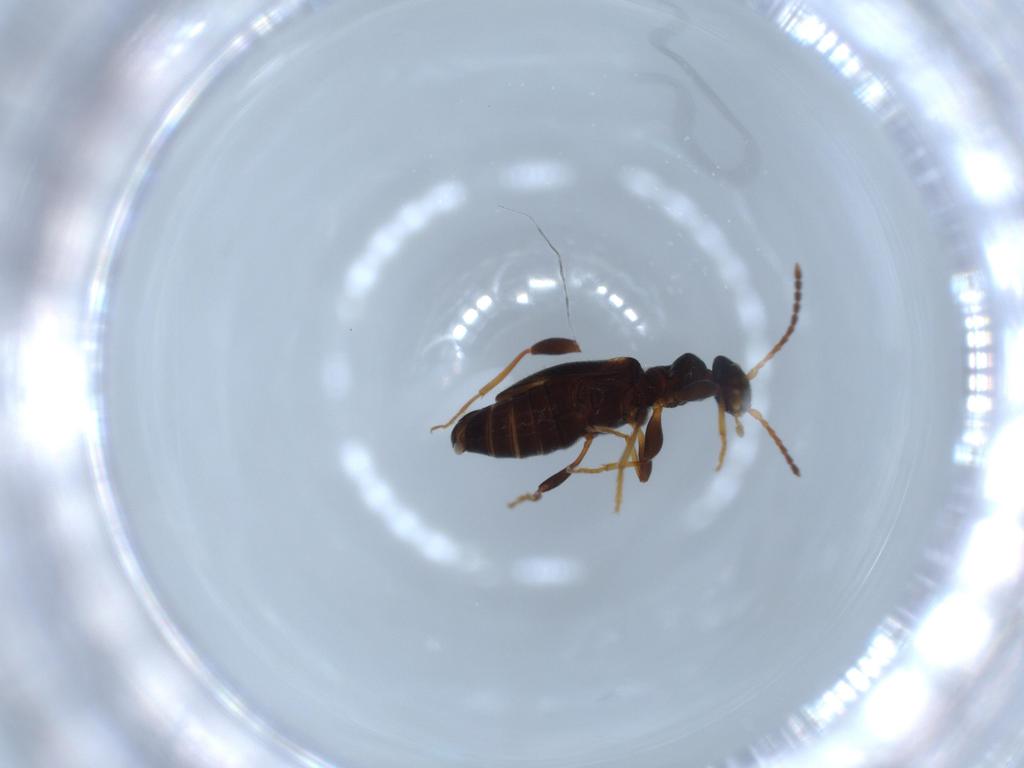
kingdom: Animalia
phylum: Arthropoda
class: Insecta
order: Coleoptera
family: Anthicidae
